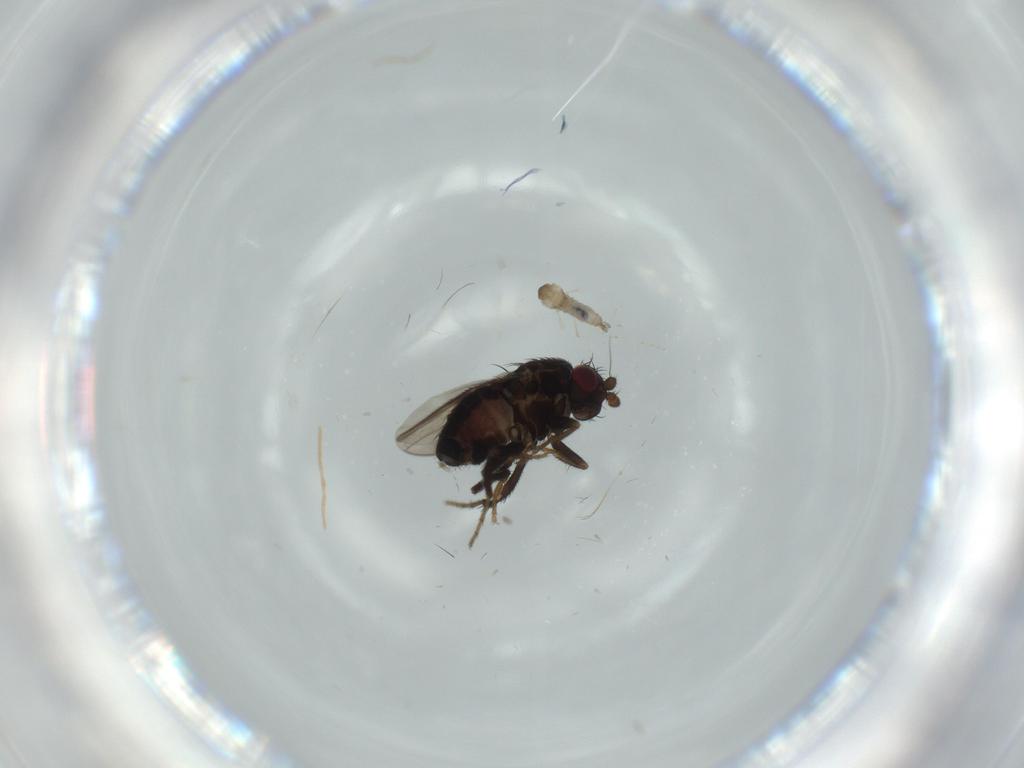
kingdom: Animalia
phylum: Arthropoda
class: Insecta
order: Diptera
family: Cecidomyiidae
